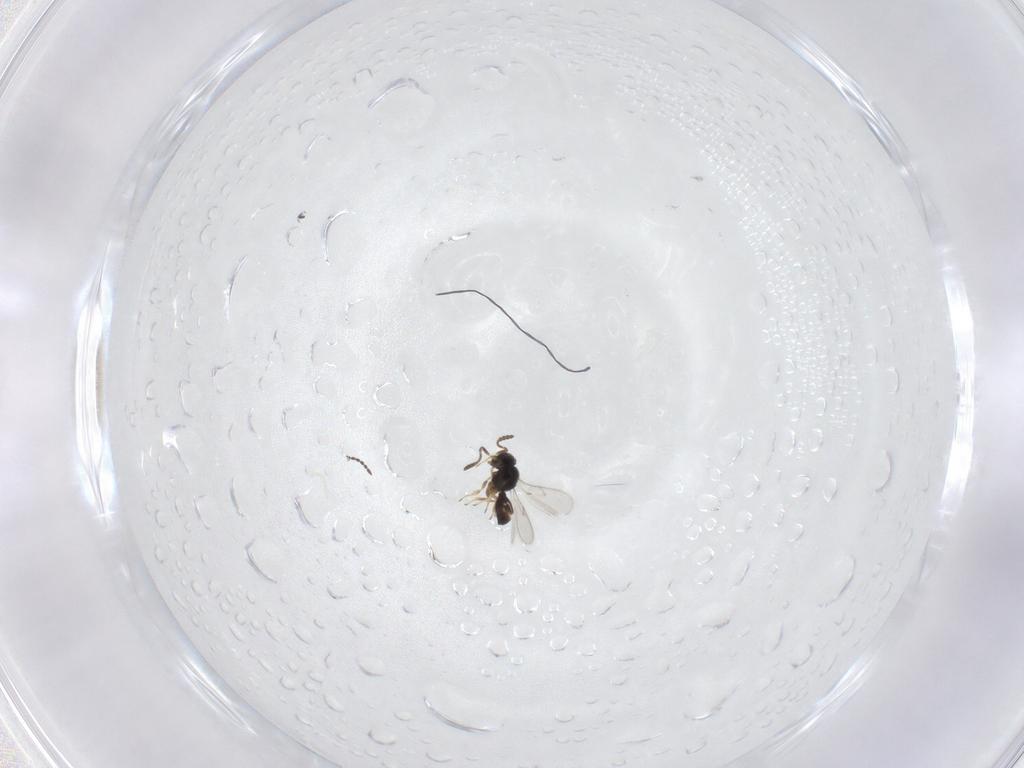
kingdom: Animalia
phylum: Arthropoda
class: Insecta
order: Hymenoptera
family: Scelionidae
